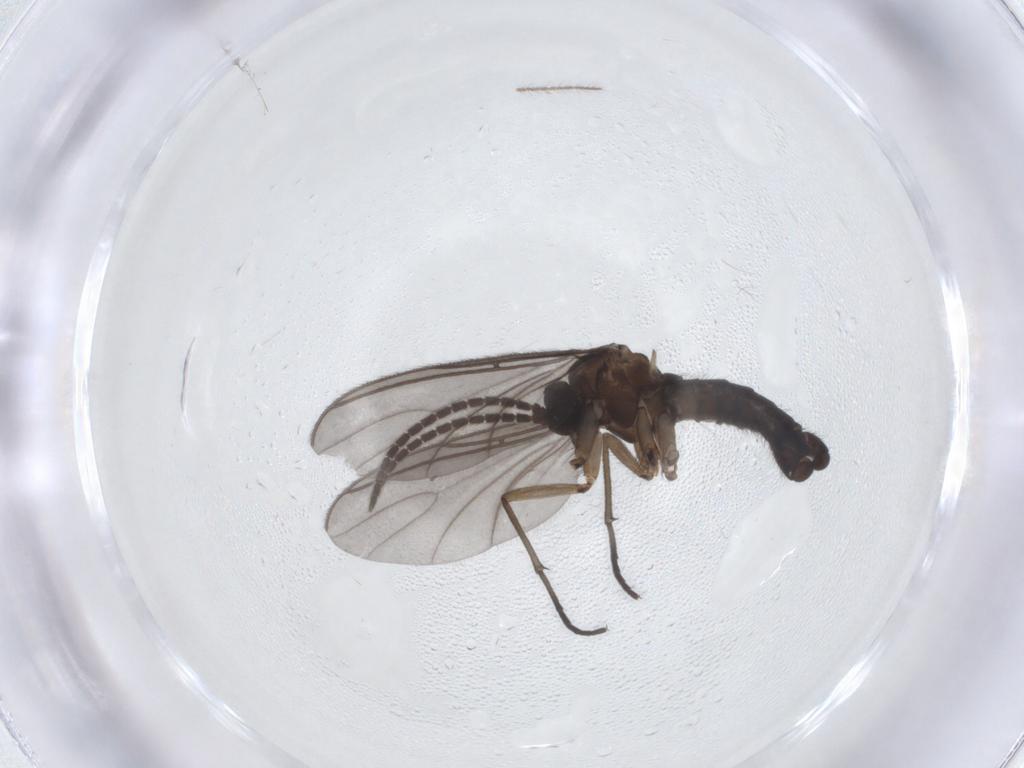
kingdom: Animalia
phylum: Arthropoda
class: Insecta
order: Diptera
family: Sciaridae
